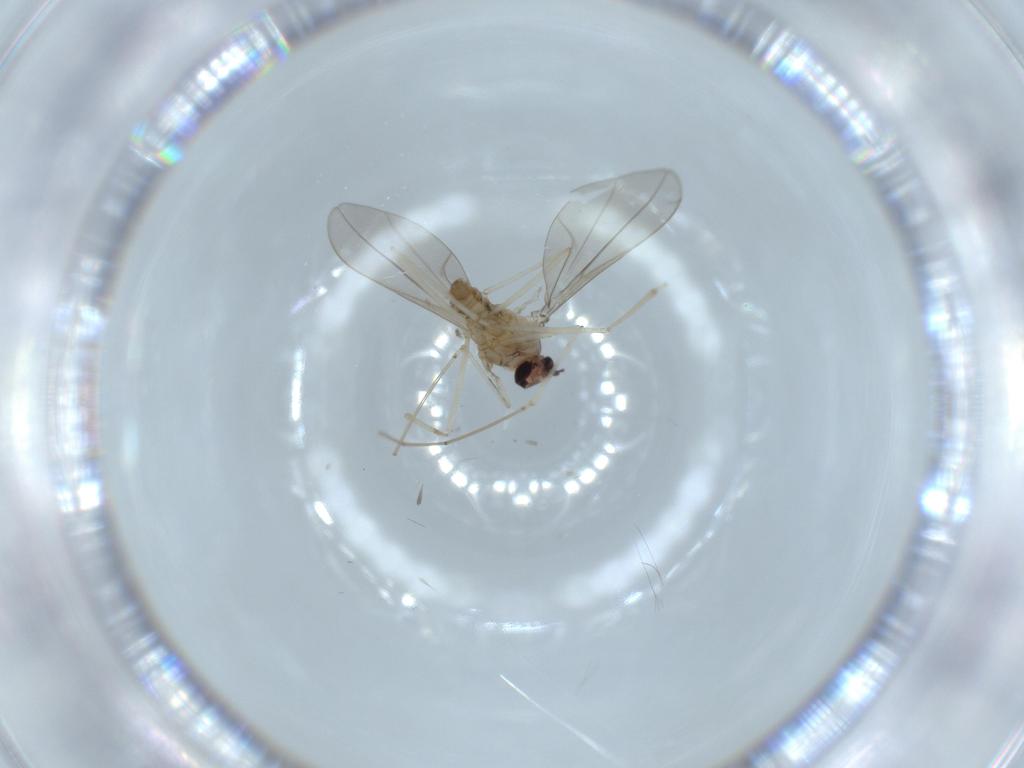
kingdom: Animalia
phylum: Arthropoda
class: Insecta
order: Diptera
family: Cecidomyiidae
